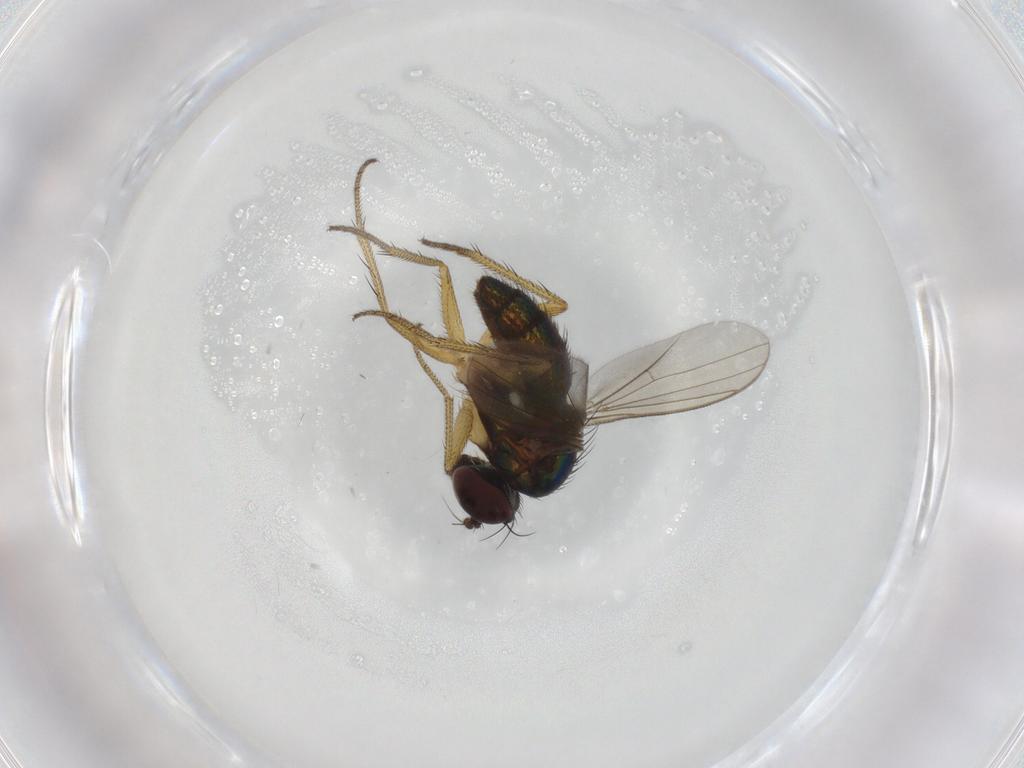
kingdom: Animalia
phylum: Arthropoda
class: Insecta
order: Diptera
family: Dolichopodidae
